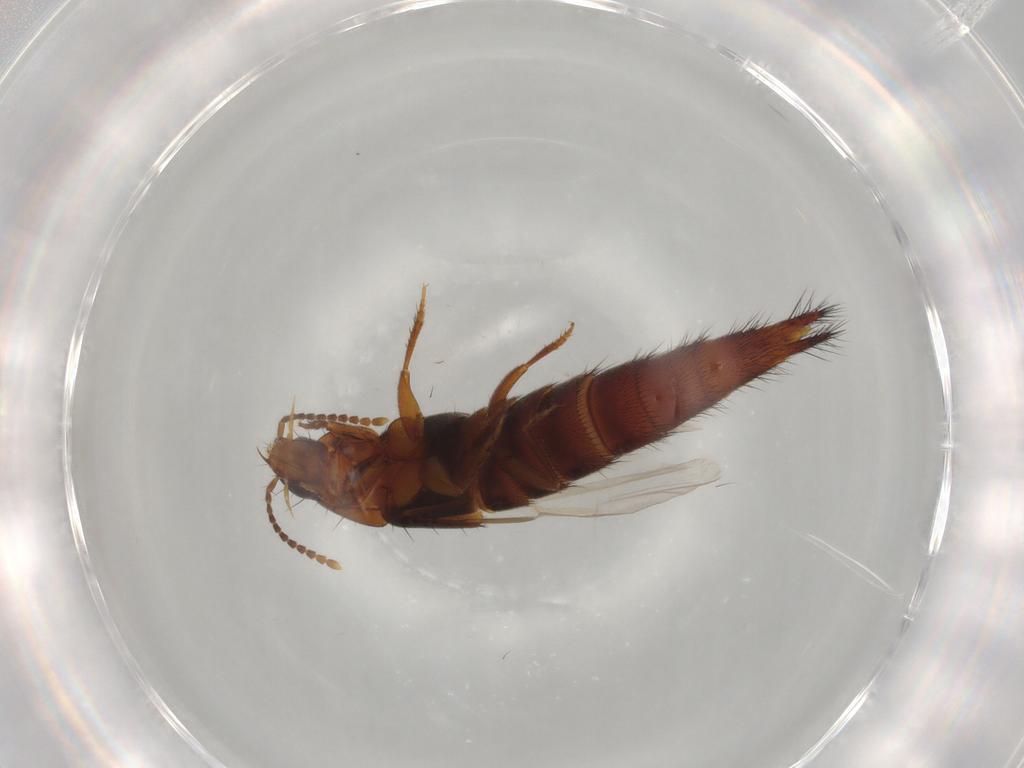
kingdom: Animalia
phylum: Arthropoda
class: Insecta
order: Coleoptera
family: Staphylinidae
